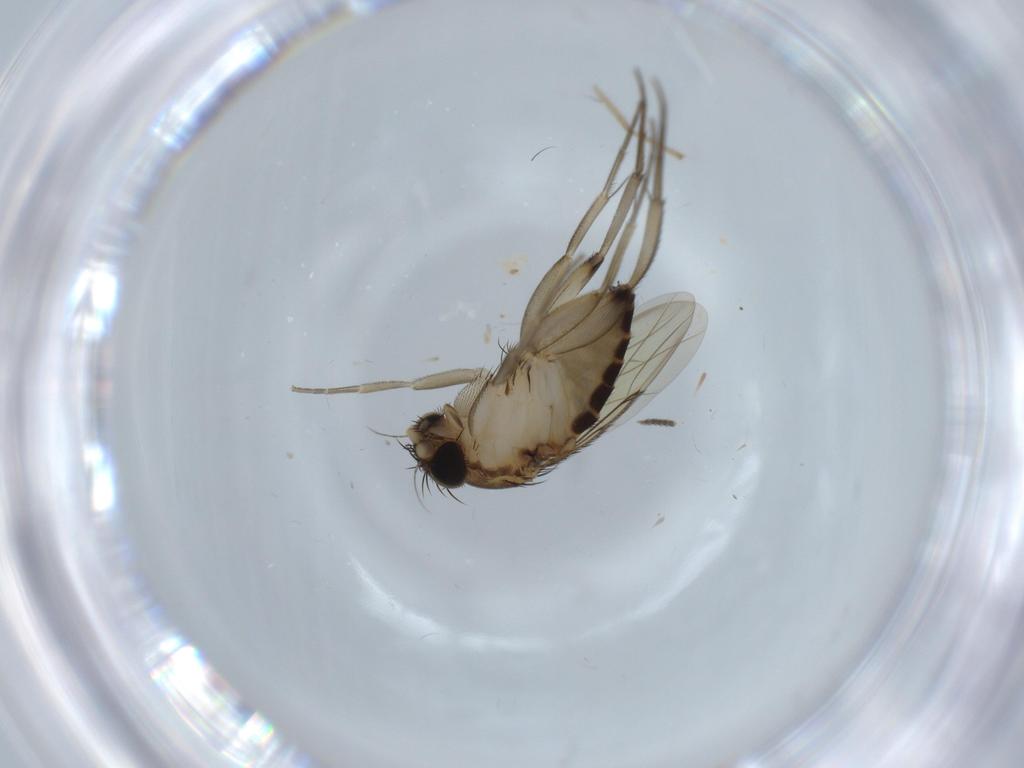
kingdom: Animalia
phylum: Arthropoda
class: Insecta
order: Diptera
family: Phoridae
